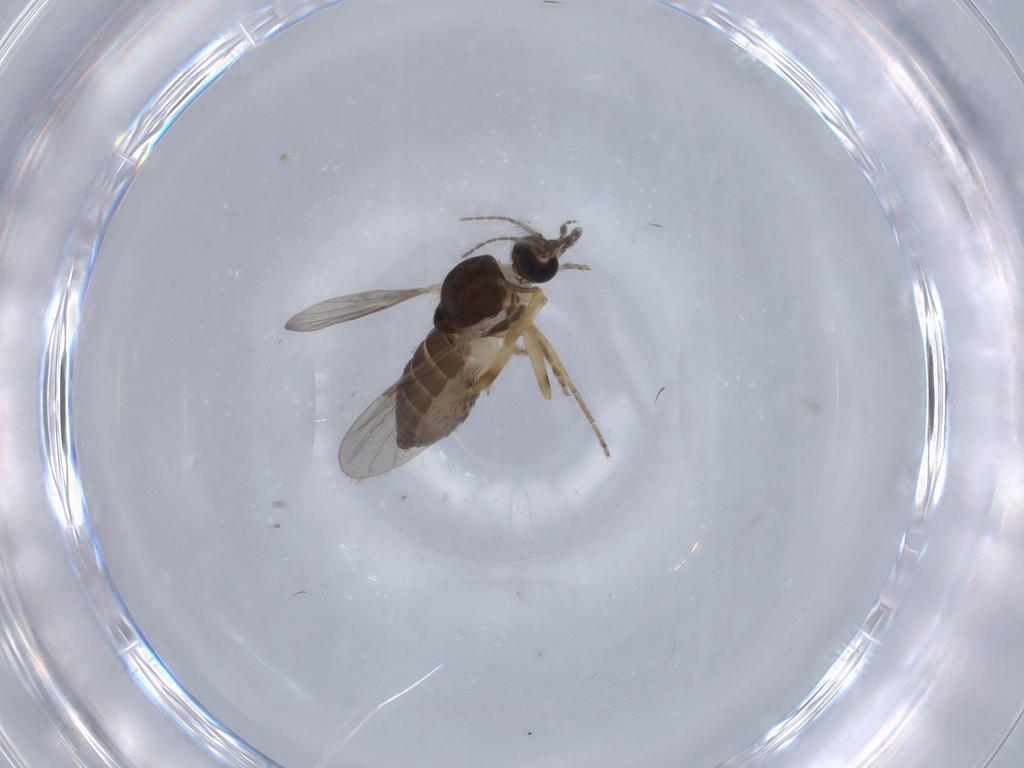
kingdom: Animalia
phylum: Arthropoda
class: Insecta
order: Diptera
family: Ceratopogonidae
